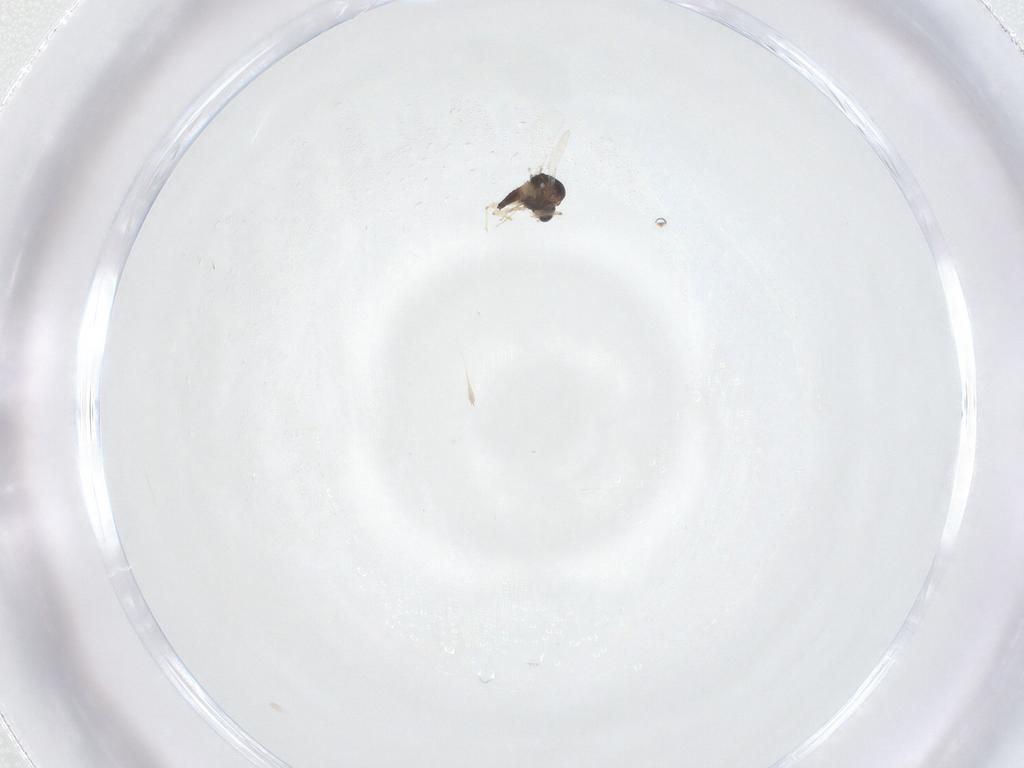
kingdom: Animalia
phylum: Arthropoda
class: Insecta
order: Diptera
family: Chironomidae
